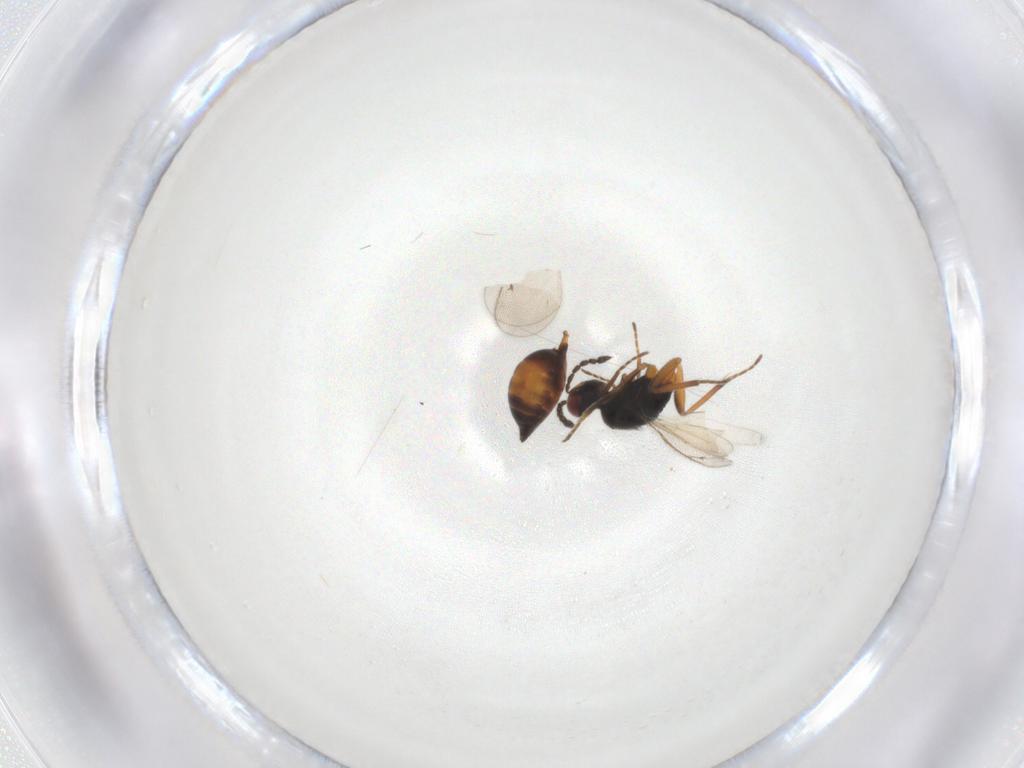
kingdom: Animalia
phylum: Arthropoda
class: Insecta
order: Hymenoptera
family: Eulophidae
